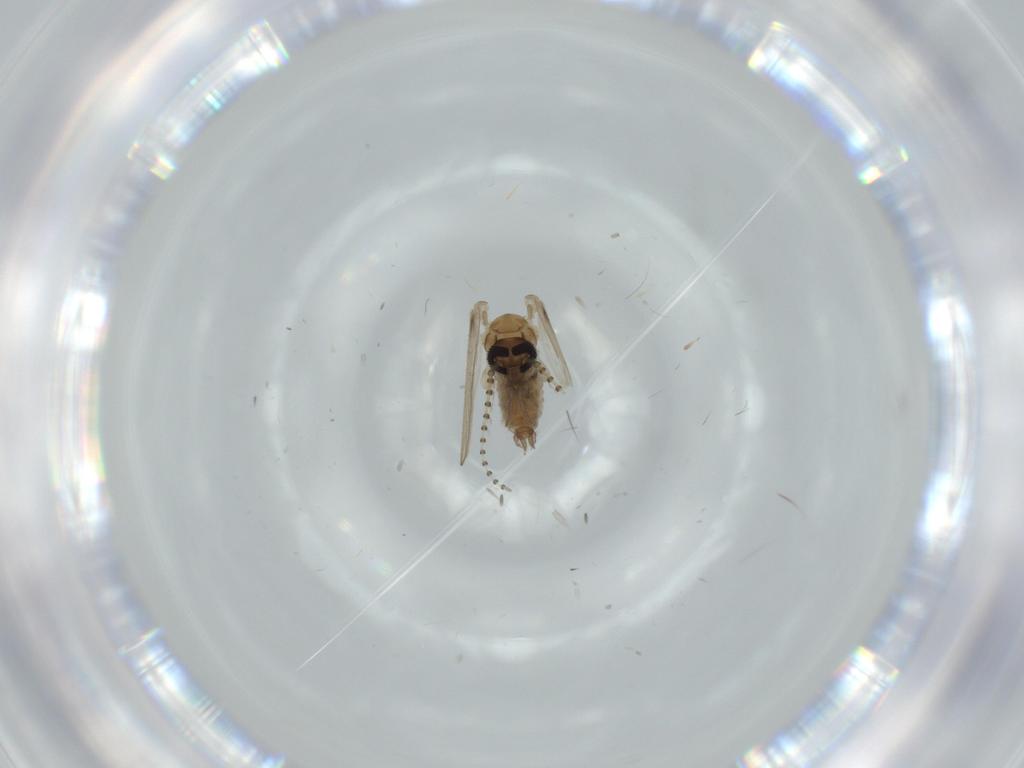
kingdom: Animalia
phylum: Arthropoda
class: Insecta
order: Diptera
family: Psychodidae
